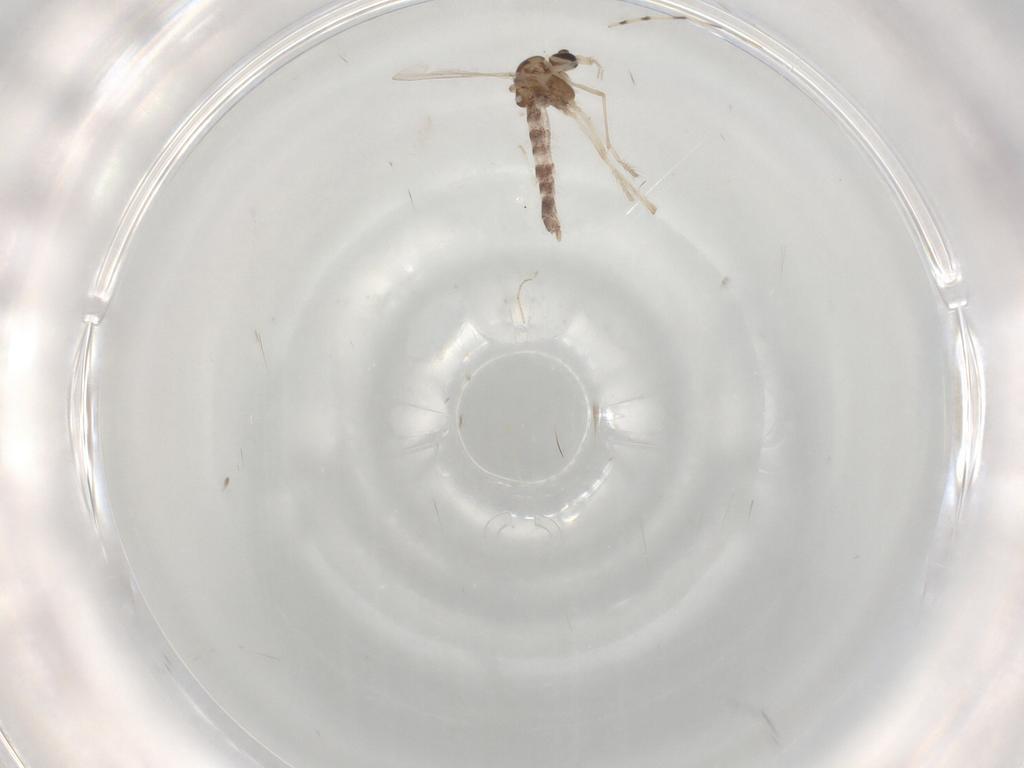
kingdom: Animalia
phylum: Arthropoda
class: Insecta
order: Diptera
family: Chironomidae
